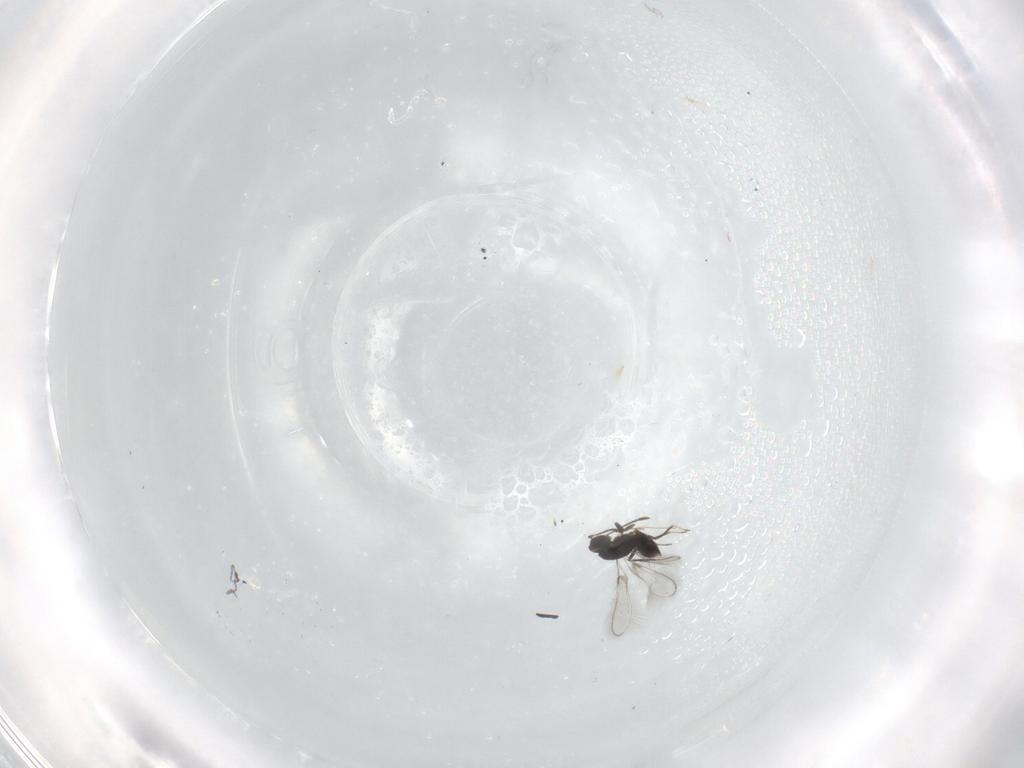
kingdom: Animalia
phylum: Arthropoda
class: Insecta
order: Hymenoptera
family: Mymaridae
